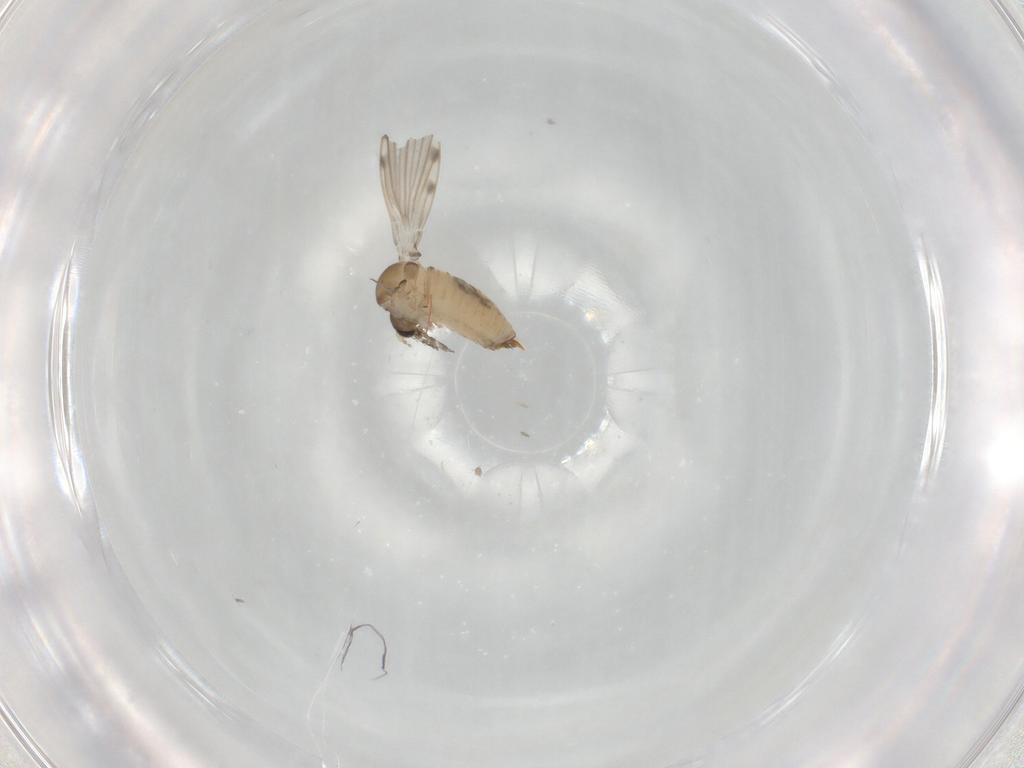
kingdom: Animalia
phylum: Arthropoda
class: Insecta
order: Diptera
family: Psychodidae
